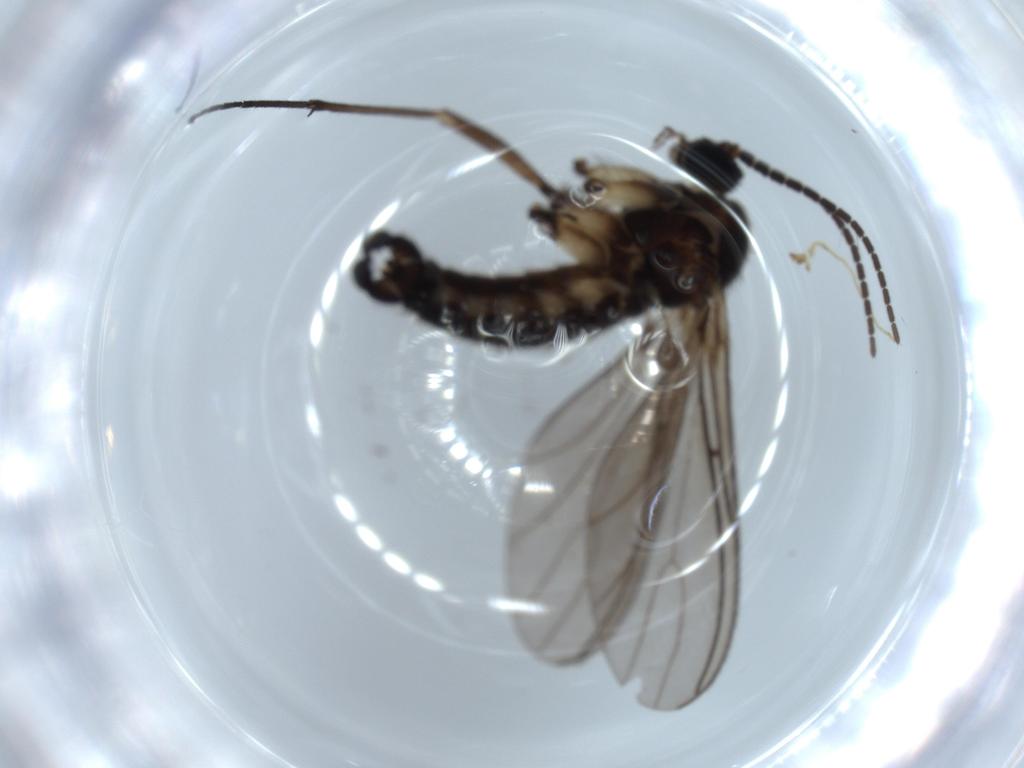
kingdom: Animalia
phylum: Arthropoda
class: Insecta
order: Diptera
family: Sciaridae
